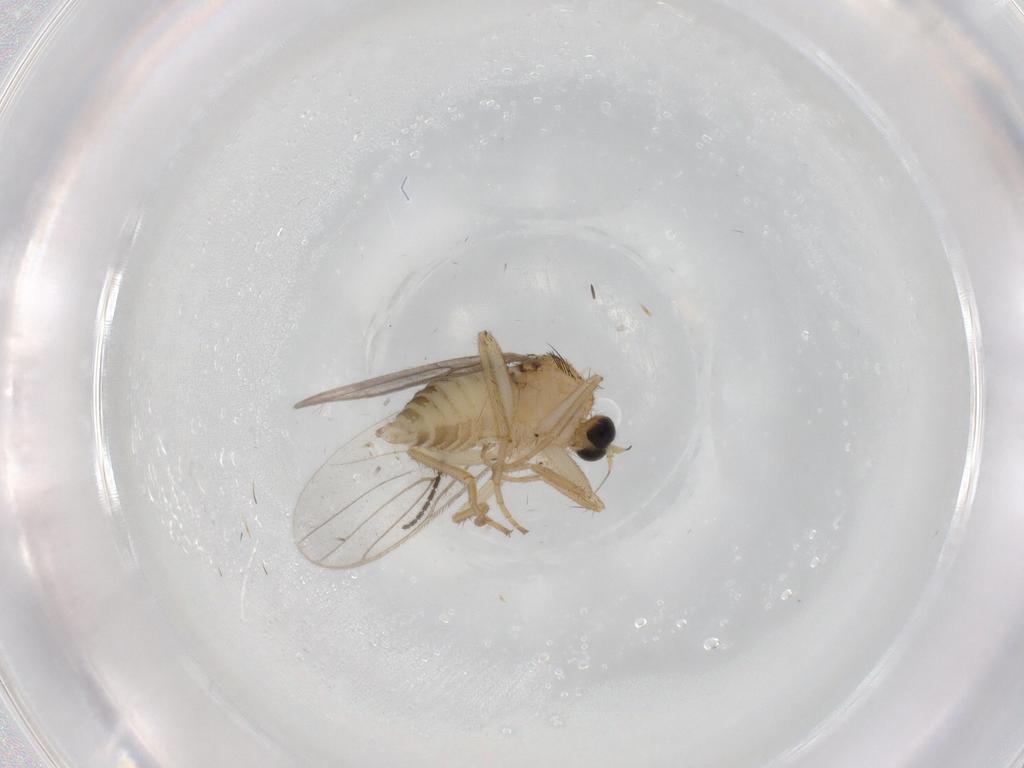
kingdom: Animalia
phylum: Arthropoda
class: Insecta
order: Diptera
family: Hybotidae
